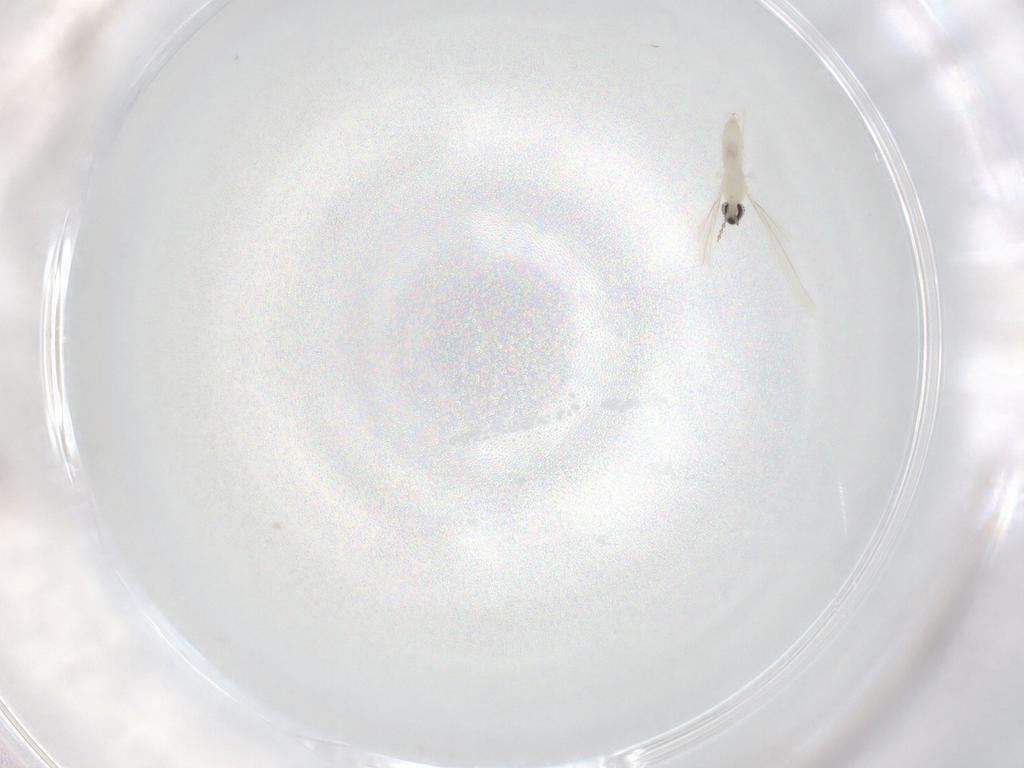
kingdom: Animalia
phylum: Arthropoda
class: Insecta
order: Diptera
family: Cecidomyiidae
